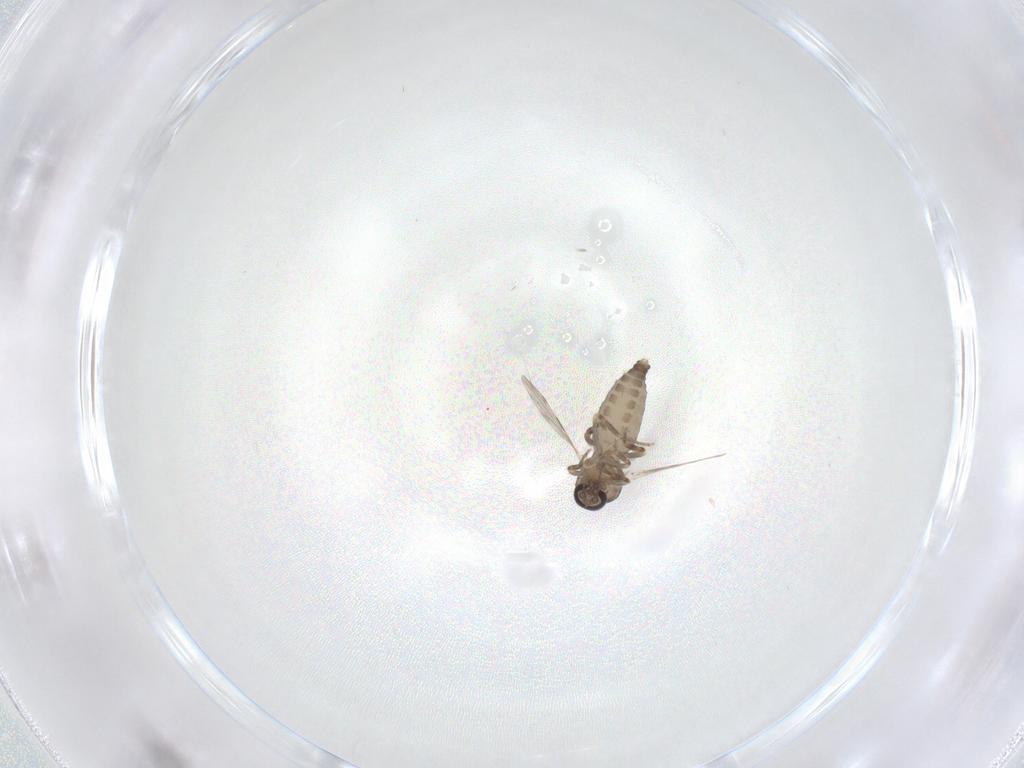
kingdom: Animalia
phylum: Arthropoda
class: Insecta
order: Diptera
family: Ceratopogonidae
